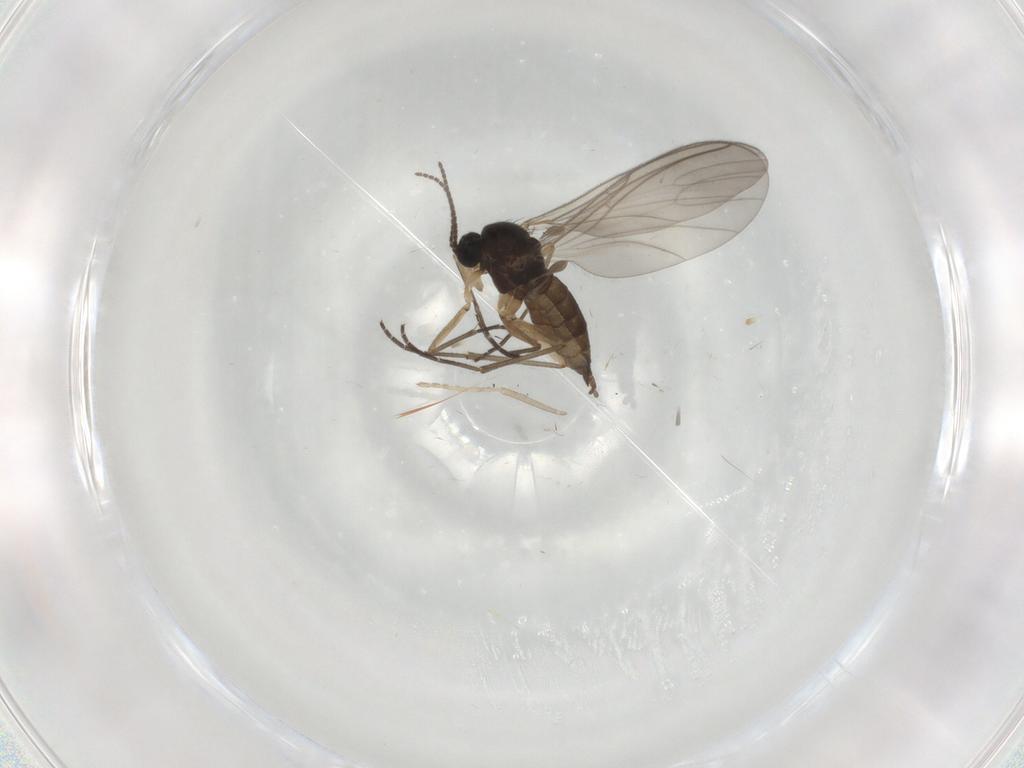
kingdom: Animalia
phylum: Arthropoda
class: Insecta
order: Diptera
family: Sciaridae
